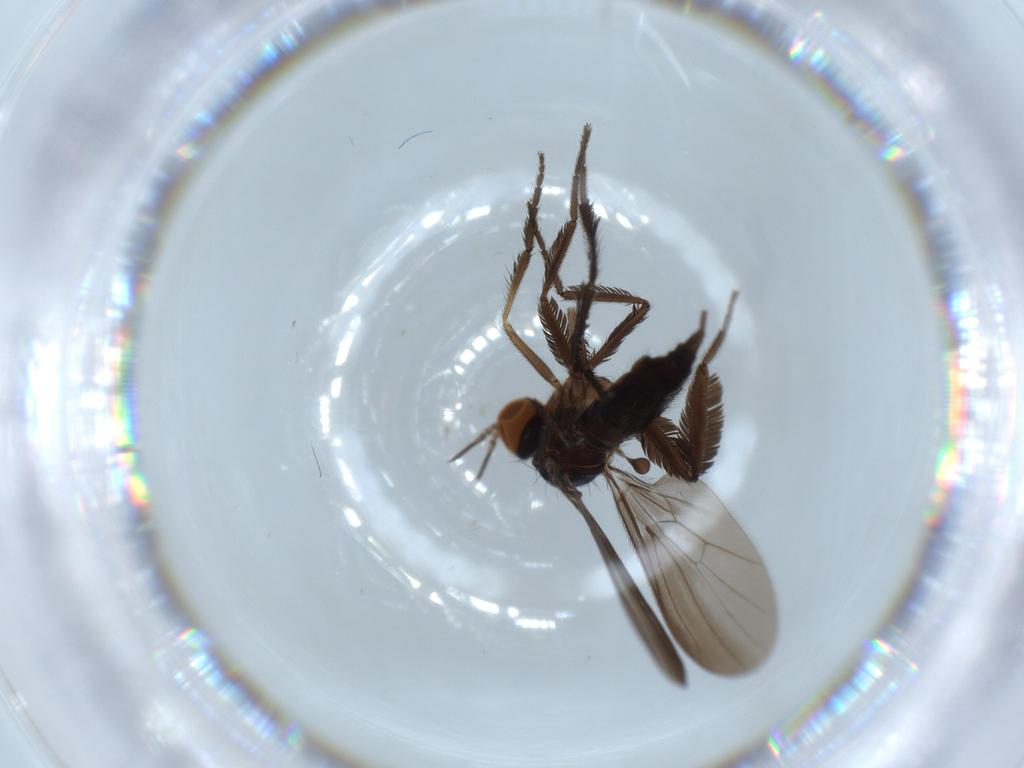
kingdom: Animalia
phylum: Arthropoda
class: Insecta
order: Diptera
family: Empididae
